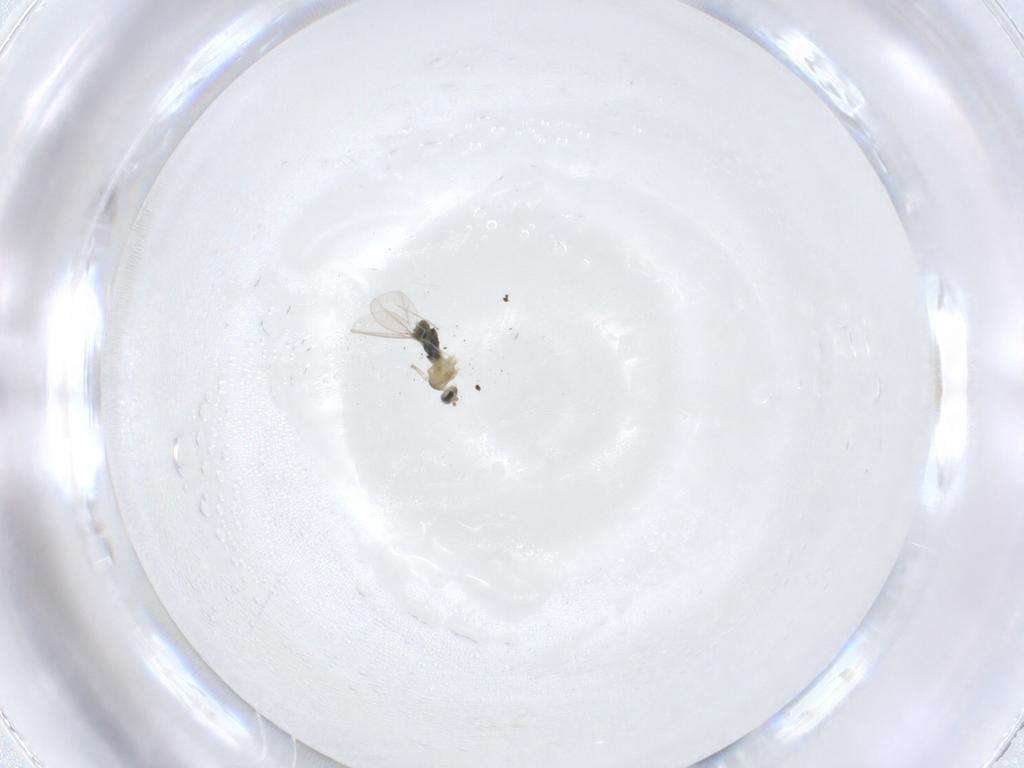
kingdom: Animalia
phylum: Arthropoda
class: Insecta
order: Diptera
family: Cecidomyiidae
